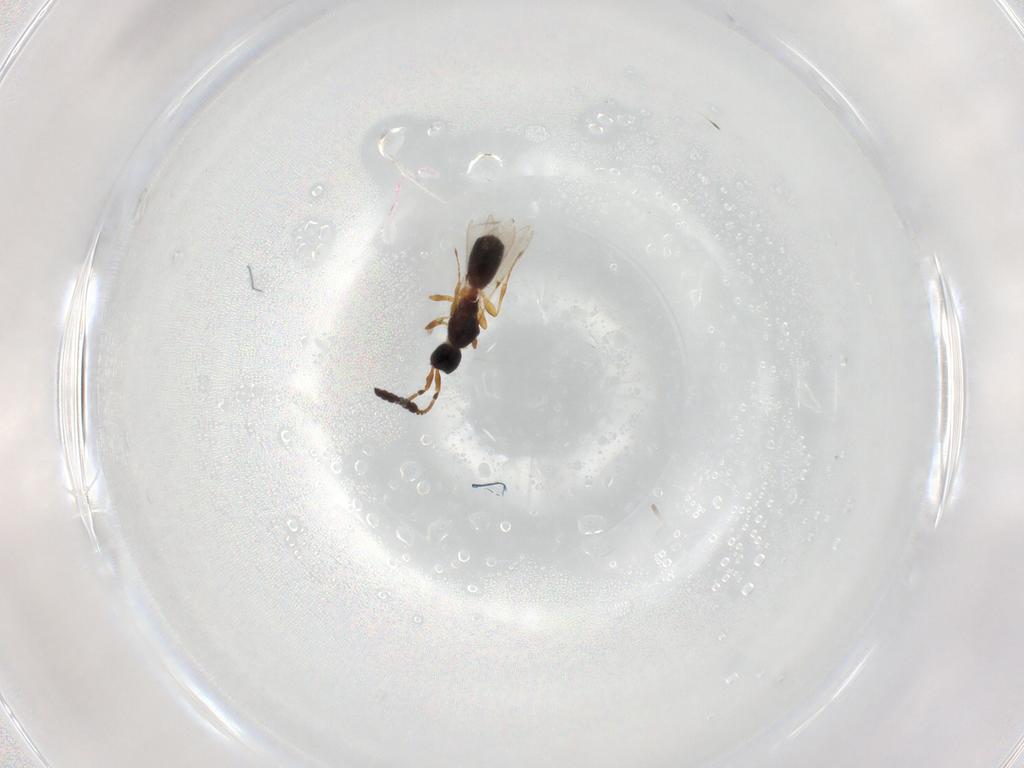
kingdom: Animalia
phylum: Arthropoda
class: Insecta
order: Hymenoptera
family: Diapriidae
